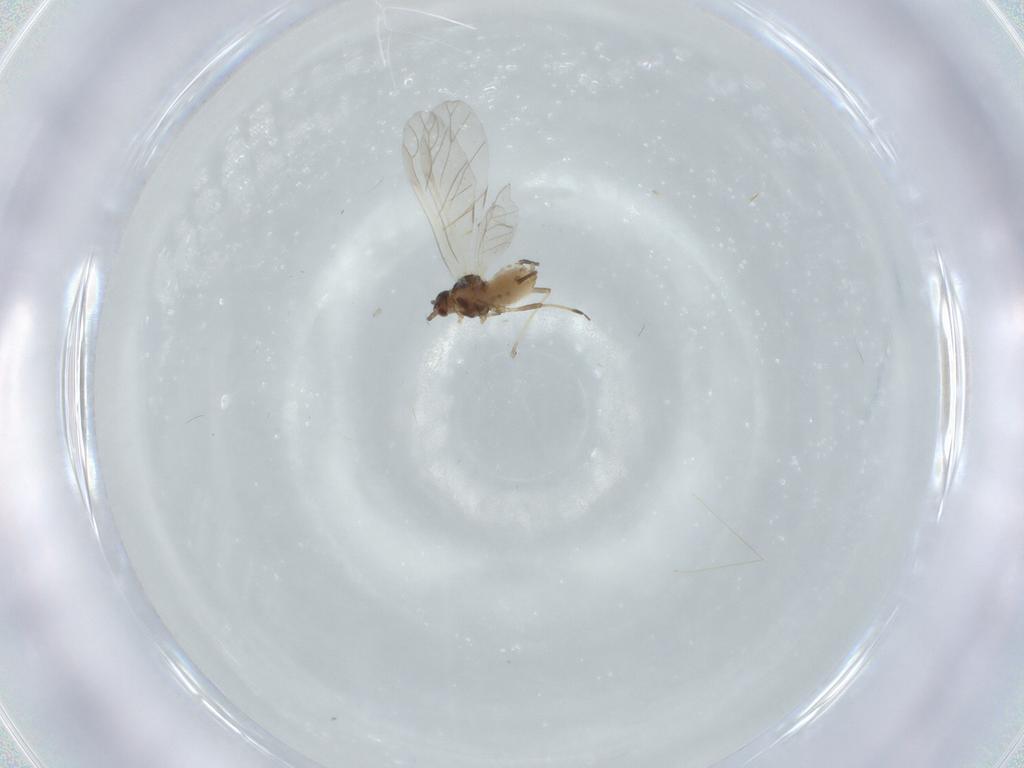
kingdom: Animalia
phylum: Arthropoda
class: Insecta
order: Hemiptera
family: Aphididae
